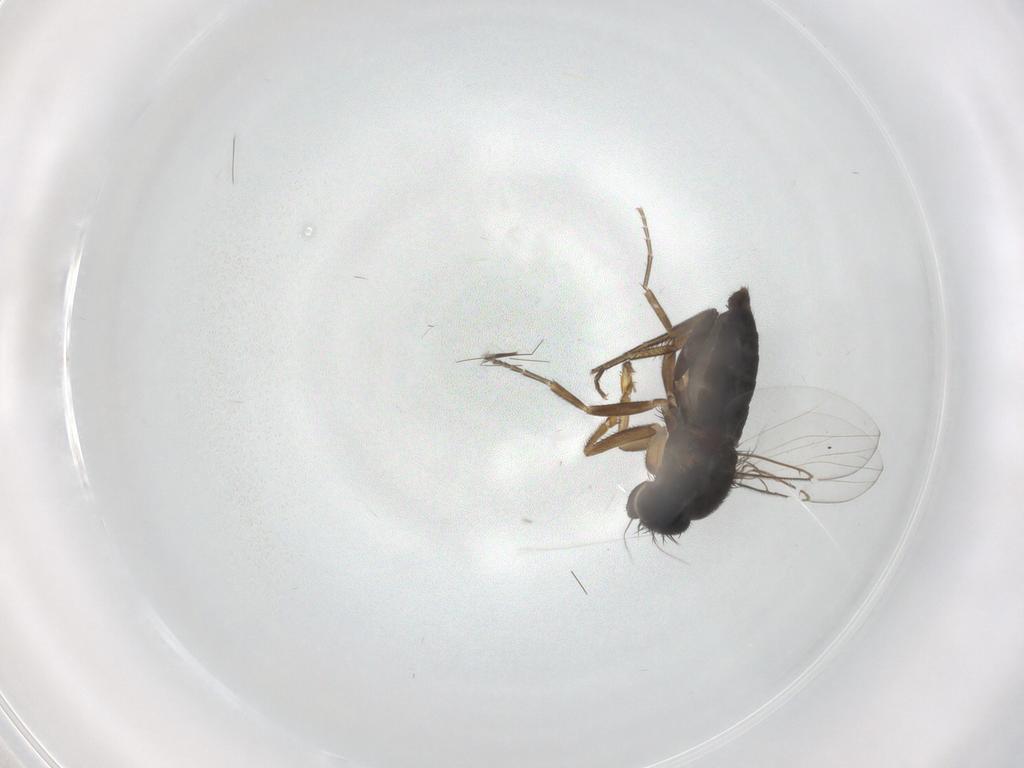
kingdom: Animalia
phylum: Arthropoda
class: Insecta
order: Diptera
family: Phoridae
